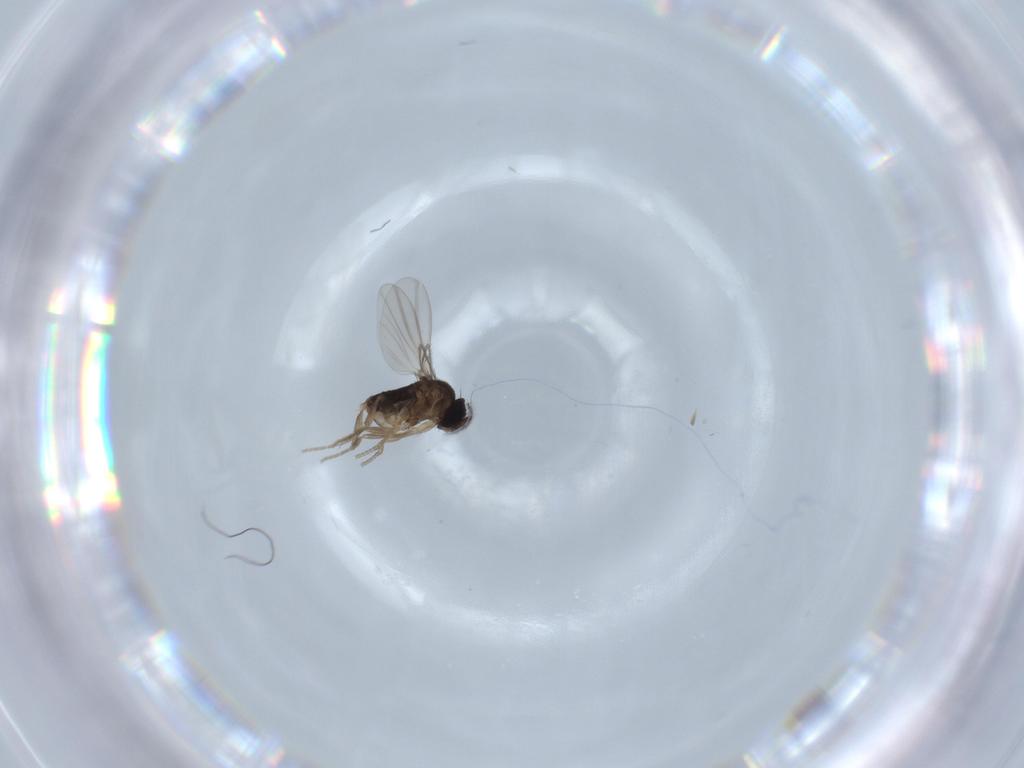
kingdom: Animalia
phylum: Arthropoda
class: Insecta
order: Diptera
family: Phoridae
